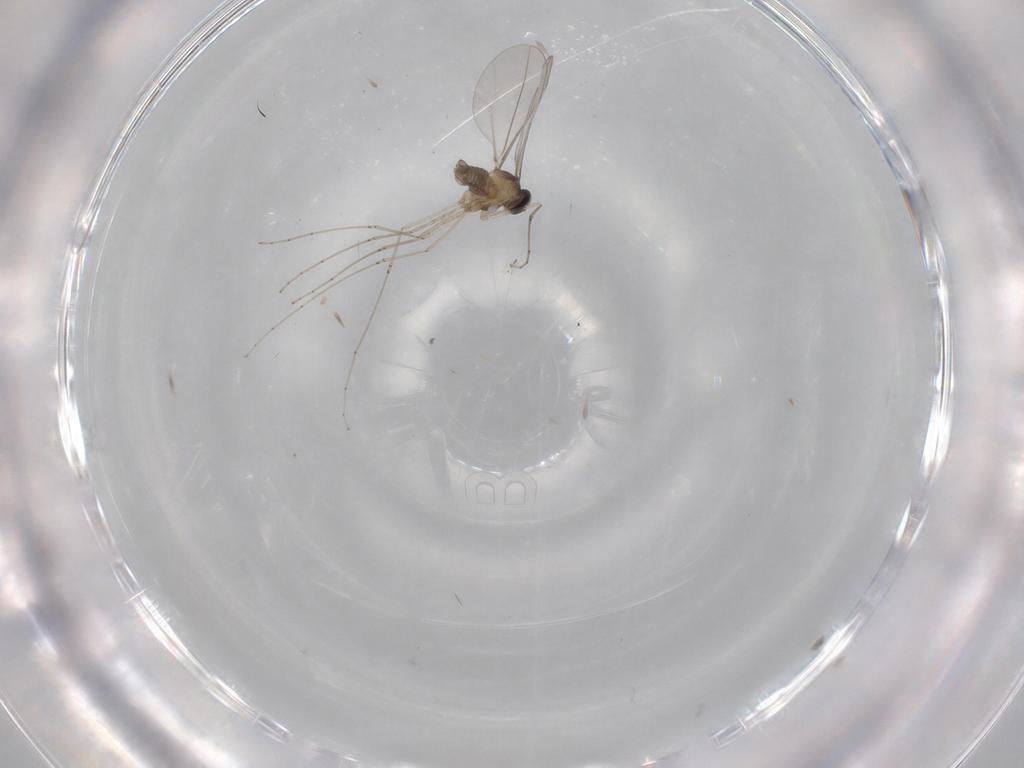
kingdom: Animalia
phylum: Arthropoda
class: Insecta
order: Diptera
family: Cecidomyiidae
